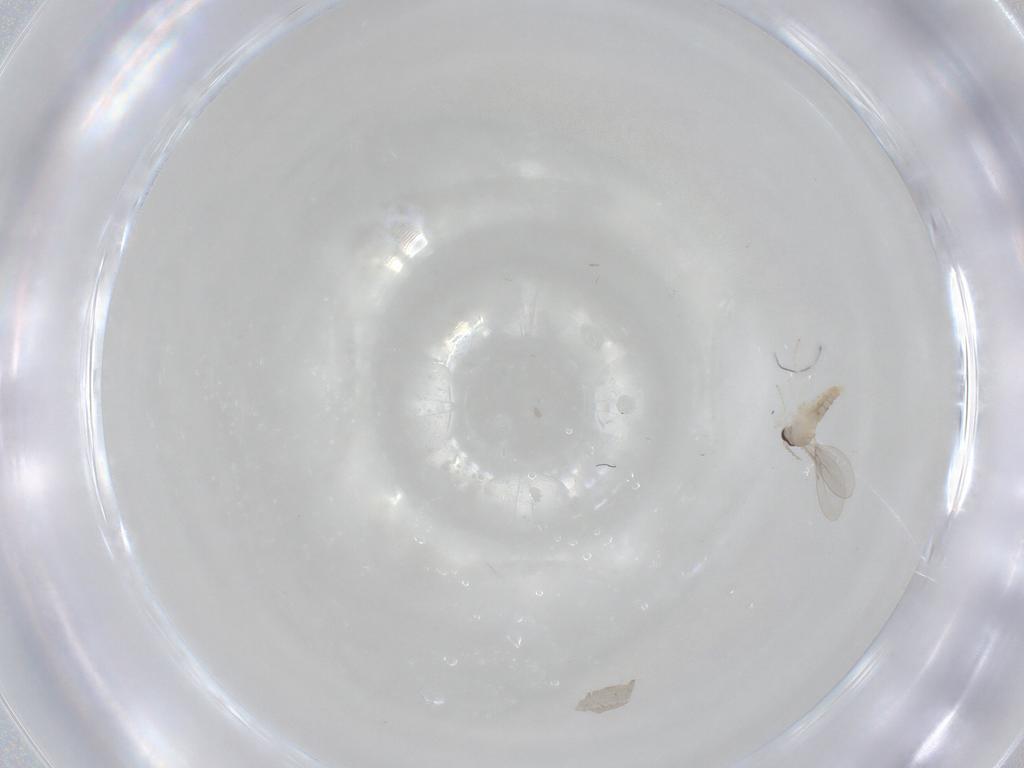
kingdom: Animalia
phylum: Arthropoda
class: Insecta
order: Diptera
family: Cecidomyiidae
